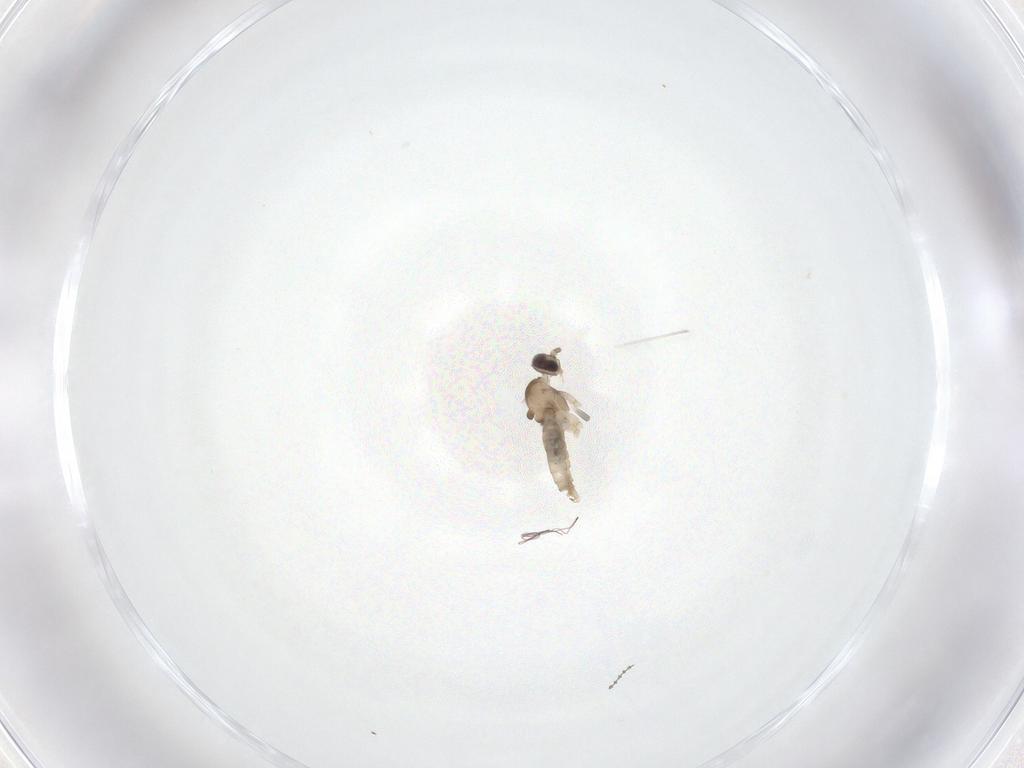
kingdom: Animalia
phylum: Arthropoda
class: Insecta
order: Diptera
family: Cecidomyiidae
